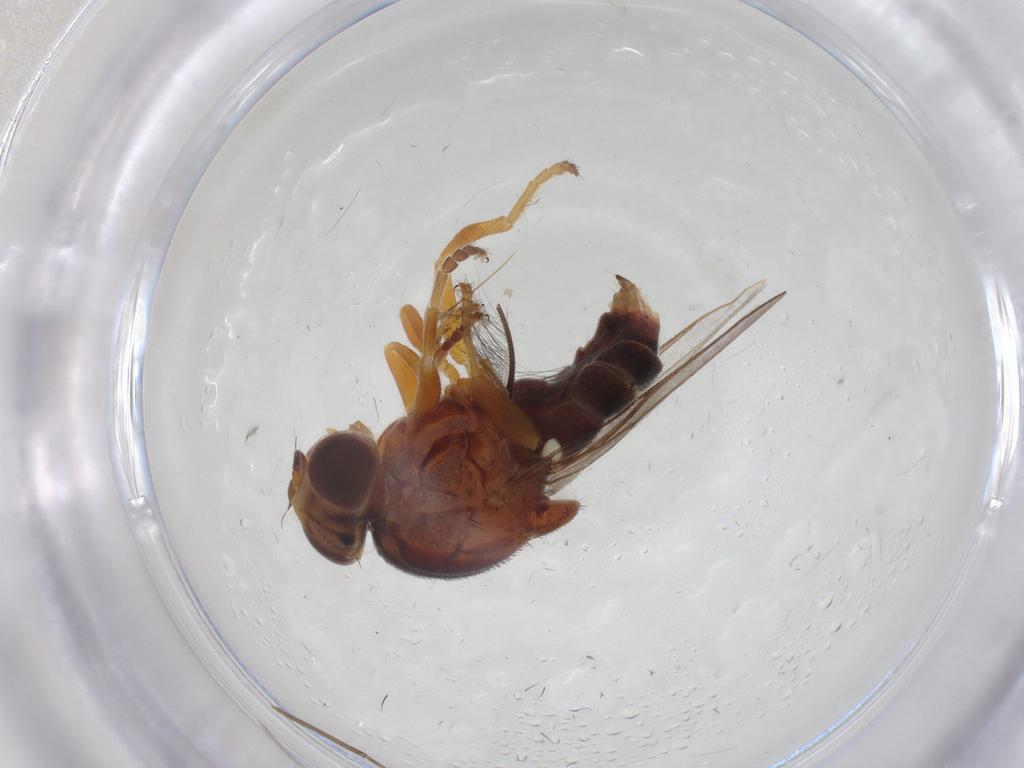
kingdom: Animalia
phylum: Arthropoda
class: Insecta
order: Diptera
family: Chloropidae
